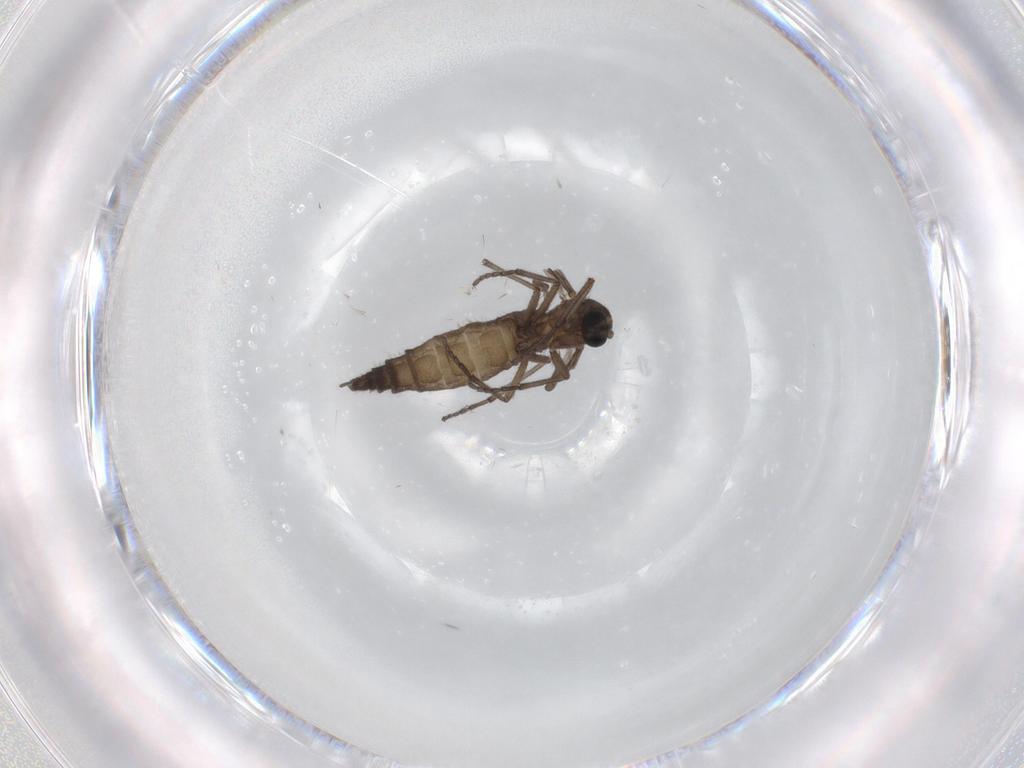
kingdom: Animalia
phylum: Arthropoda
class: Insecta
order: Diptera
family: Sciaridae
